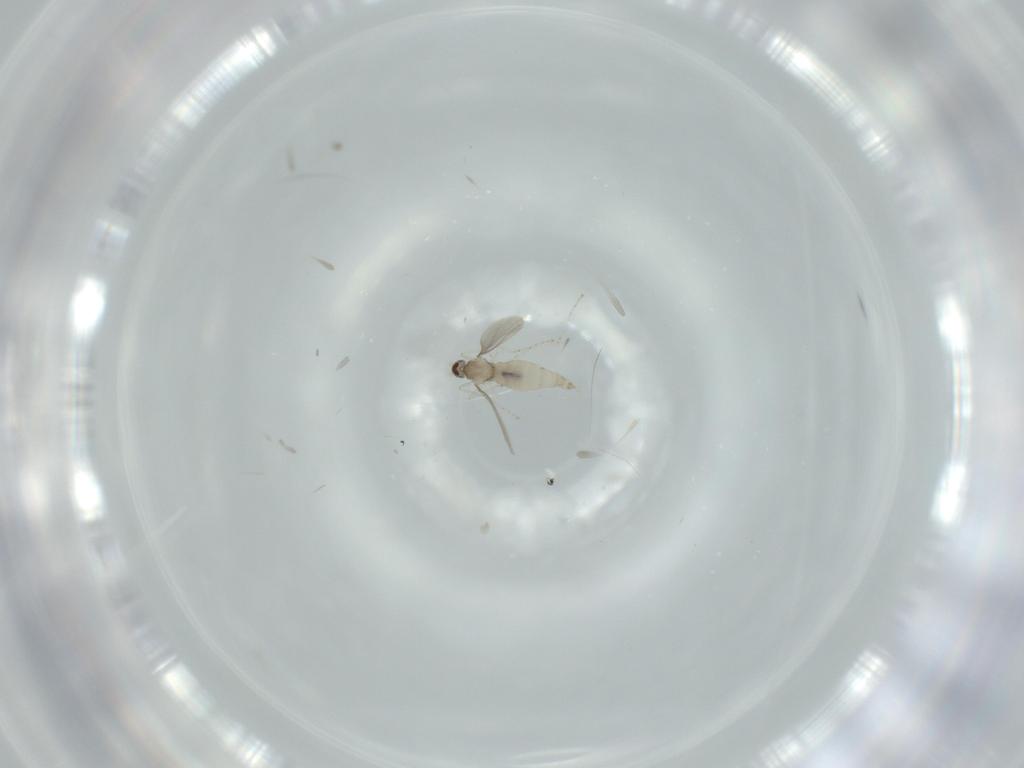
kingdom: Animalia
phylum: Arthropoda
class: Insecta
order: Diptera
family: Cecidomyiidae
